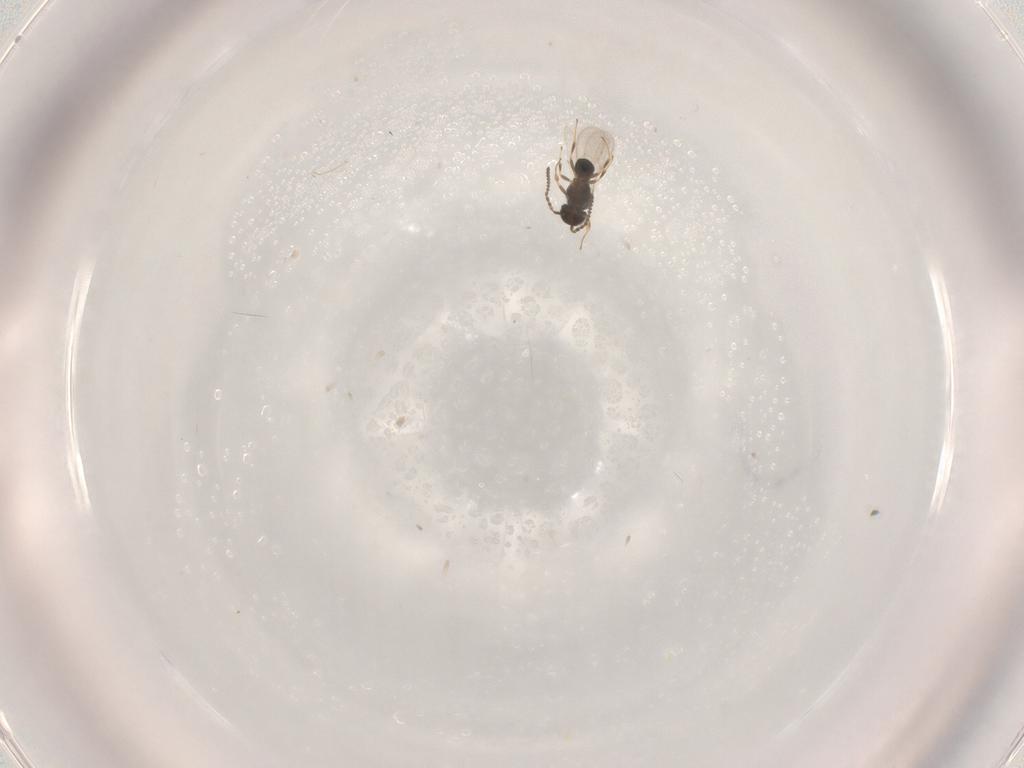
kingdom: Animalia
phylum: Arthropoda
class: Insecta
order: Hymenoptera
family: Scelionidae
